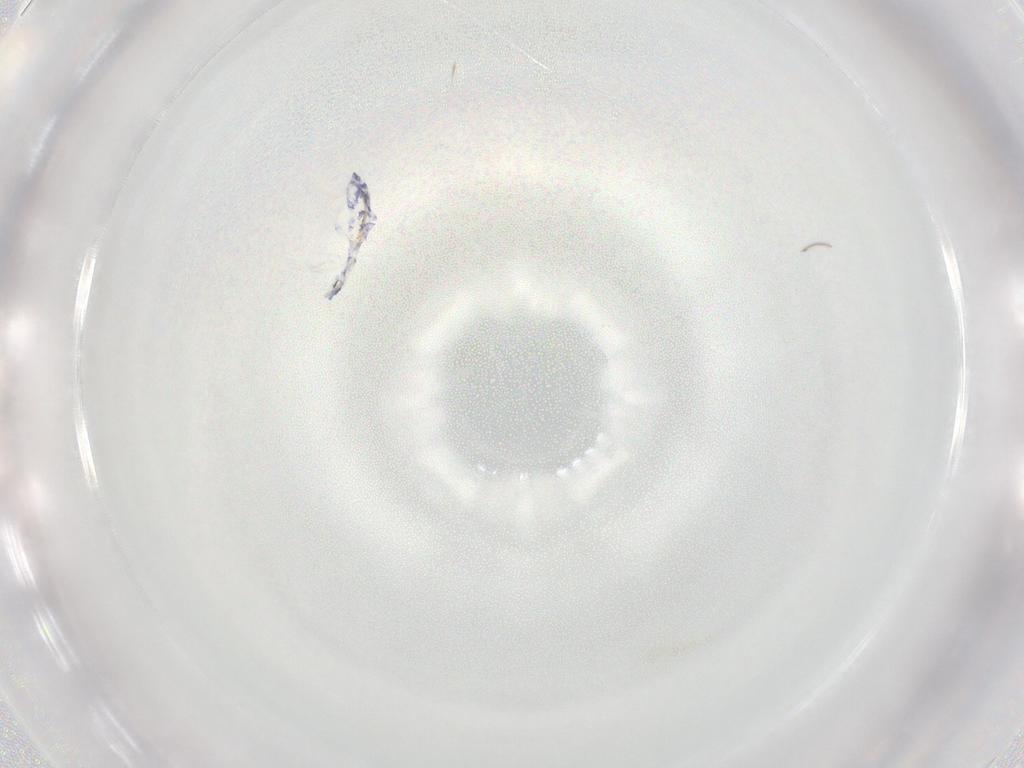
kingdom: Animalia
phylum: Arthropoda
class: Collembola
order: Entomobryomorpha
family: Entomobryidae
